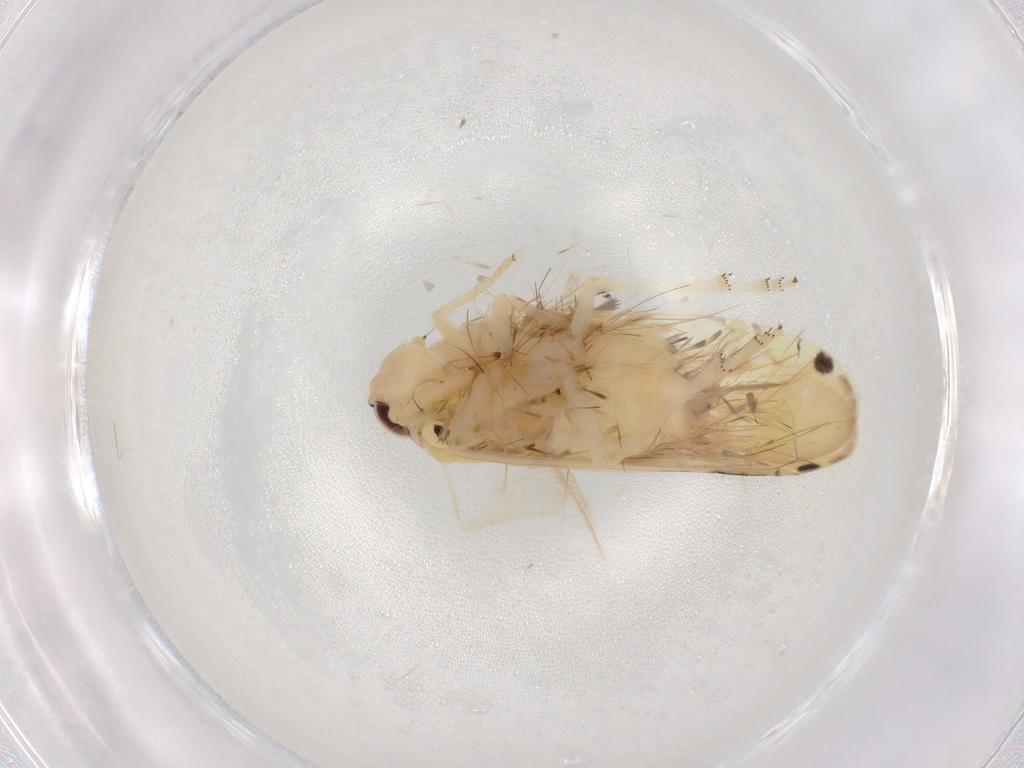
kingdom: Animalia
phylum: Arthropoda
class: Insecta
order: Hemiptera
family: Achilidae
